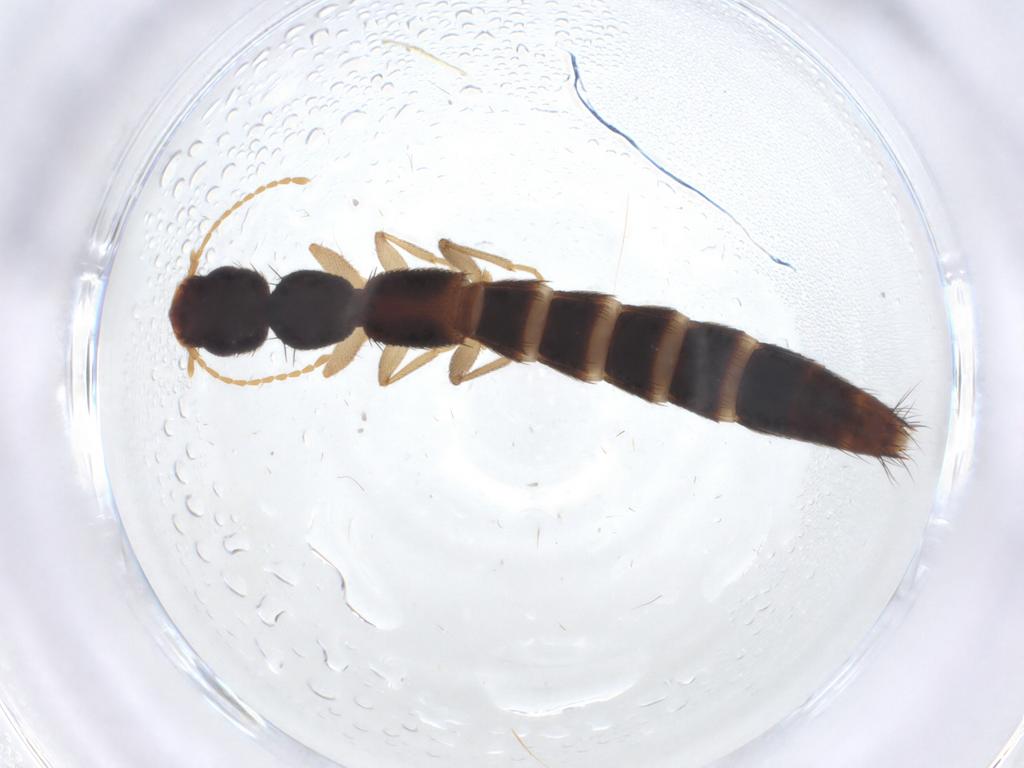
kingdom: Animalia
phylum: Arthropoda
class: Insecta
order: Coleoptera
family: Staphylinidae
